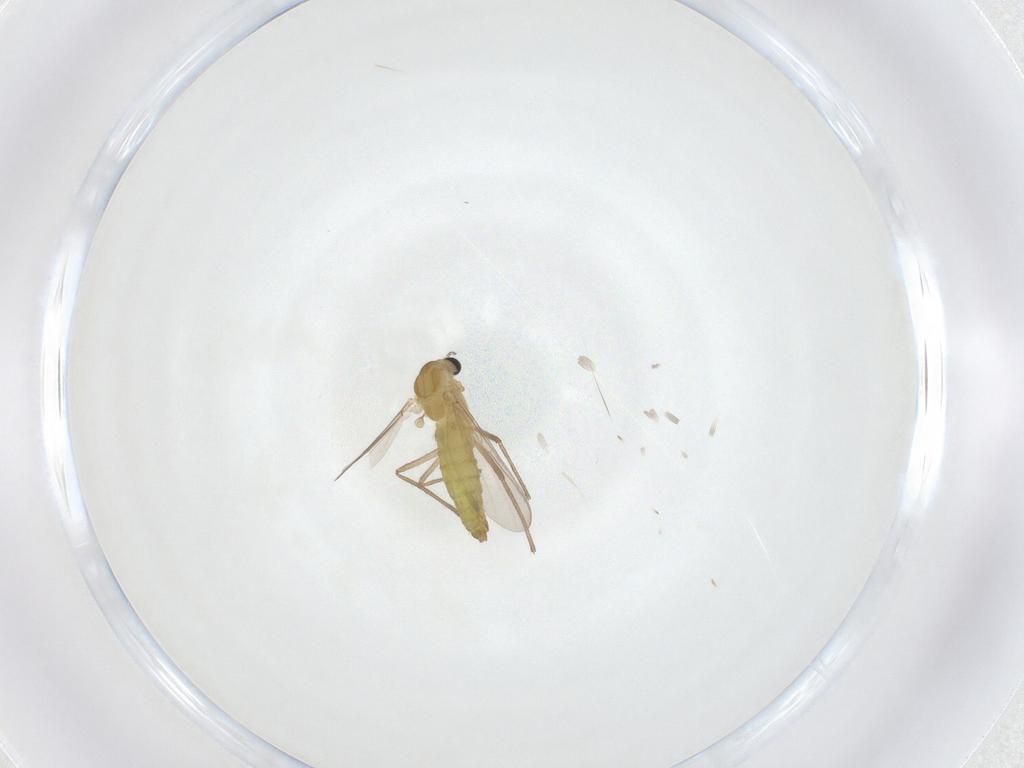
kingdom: Animalia
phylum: Arthropoda
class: Insecta
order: Diptera
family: Chironomidae
